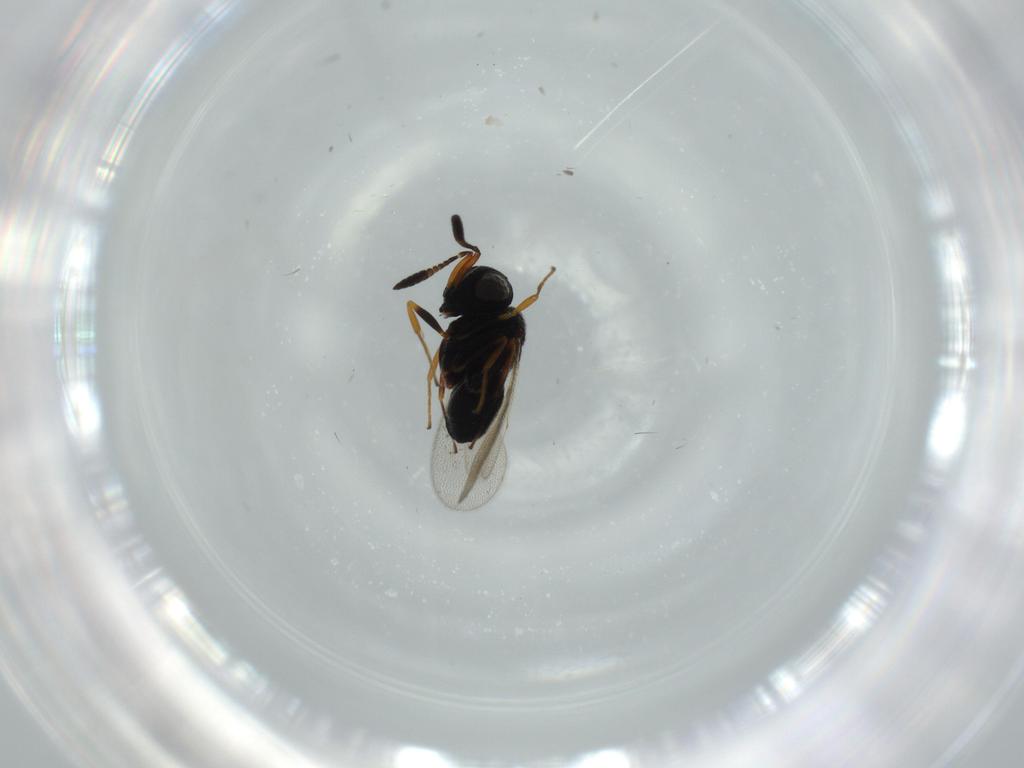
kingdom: Animalia
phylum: Arthropoda
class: Insecta
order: Hymenoptera
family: Scelionidae
